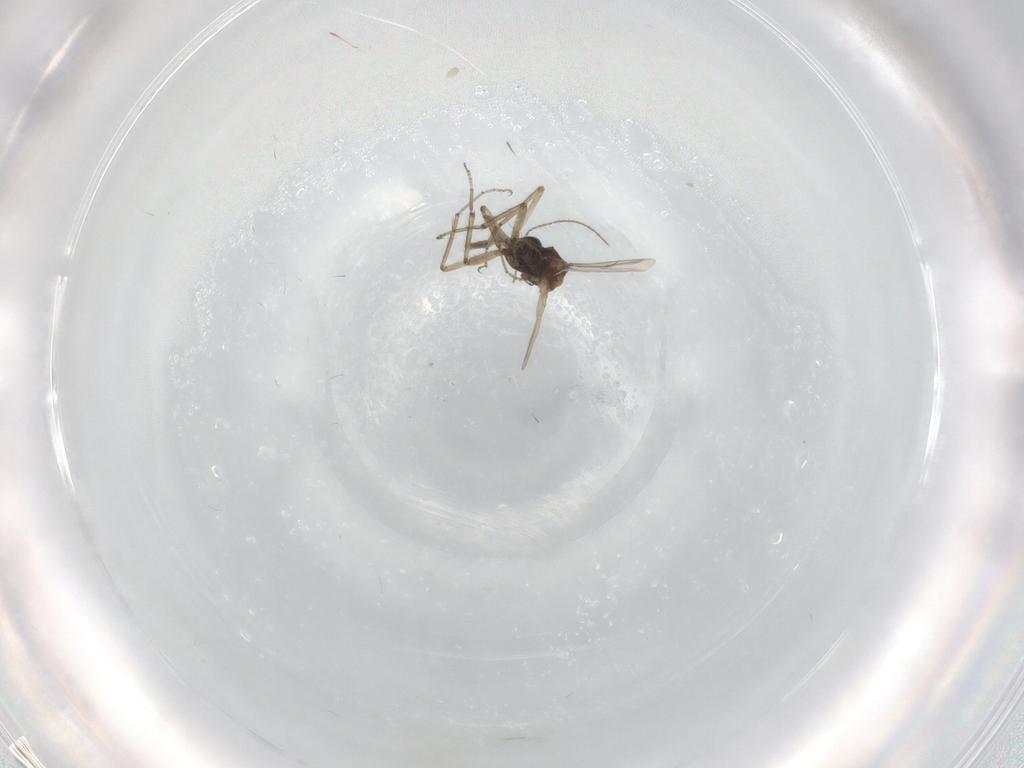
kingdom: Animalia
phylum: Arthropoda
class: Insecta
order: Diptera
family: Ceratopogonidae
